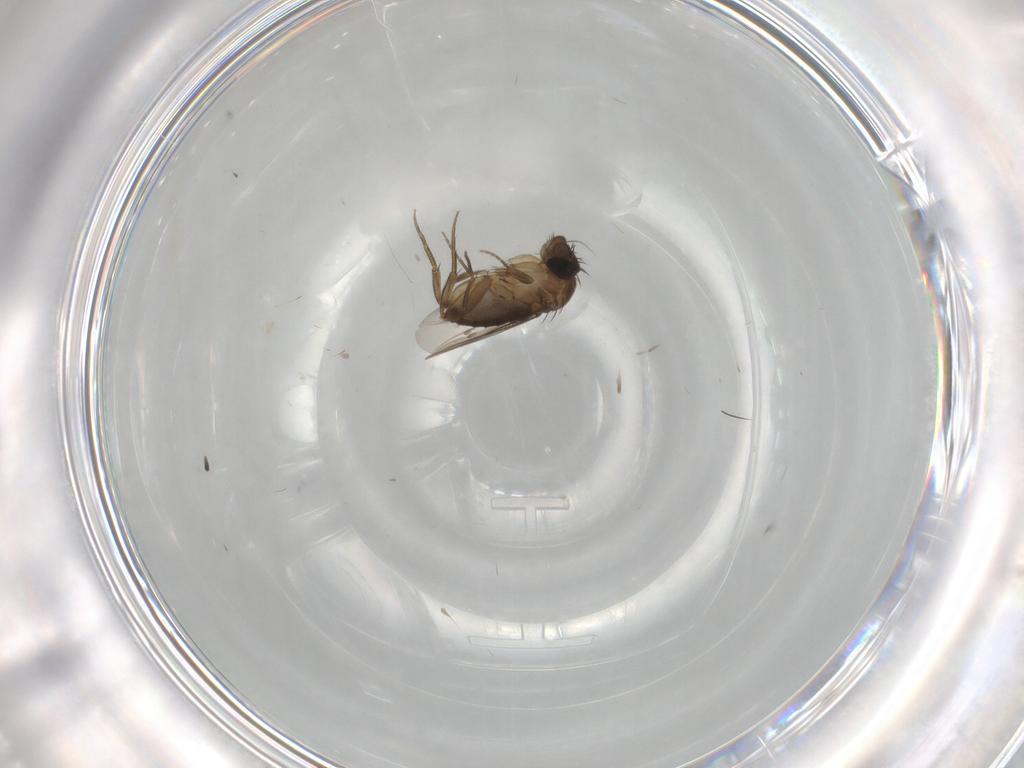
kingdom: Animalia
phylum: Arthropoda
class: Insecta
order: Diptera
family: Phoridae
